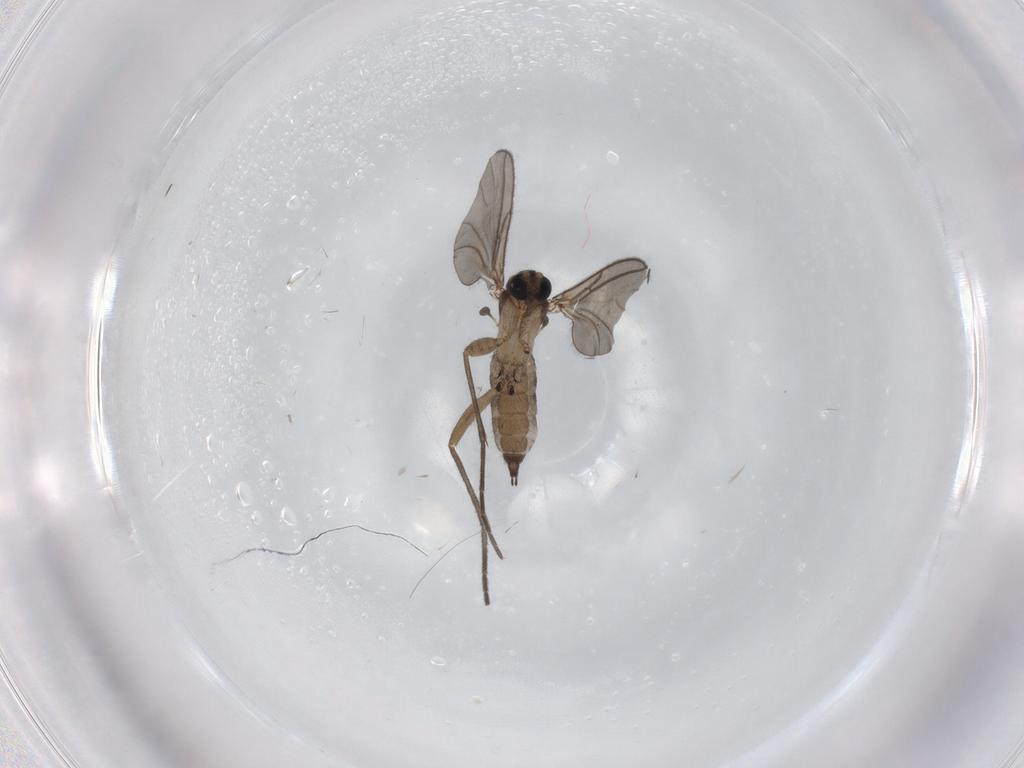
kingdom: Animalia
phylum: Arthropoda
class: Insecta
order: Diptera
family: Sciaridae
